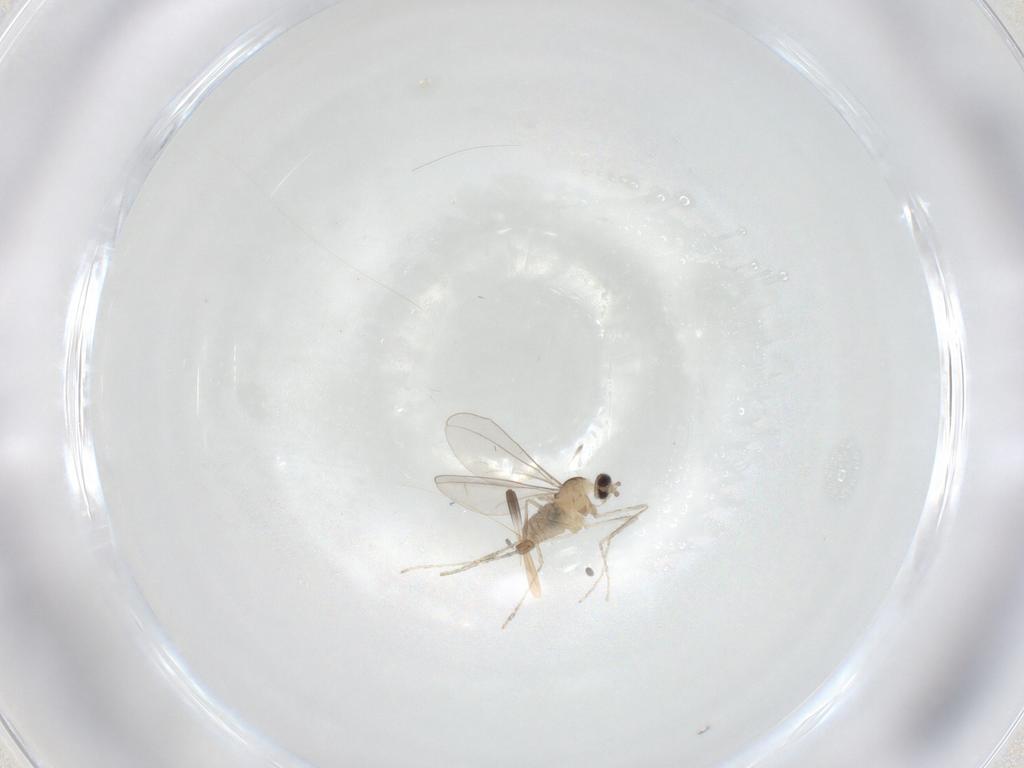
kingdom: Animalia
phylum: Arthropoda
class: Insecta
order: Diptera
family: Cecidomyiidae
